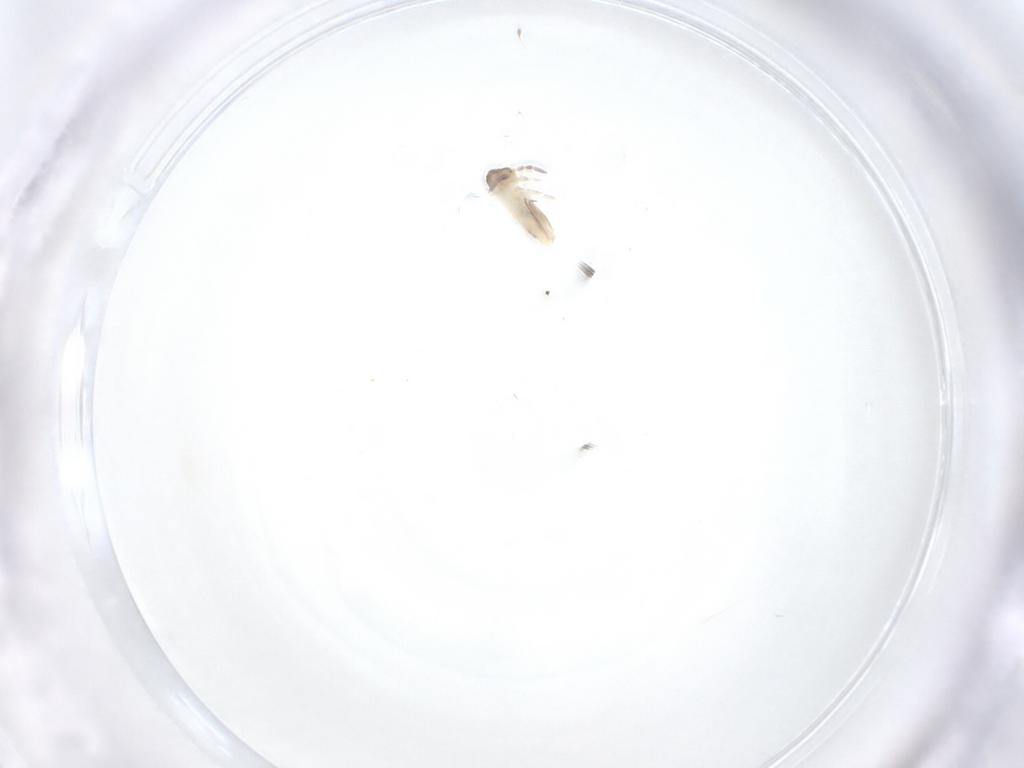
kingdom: Animalia
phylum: Arthropoda
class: Collembola
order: Entomobryomorpha
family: Entomobryidae
